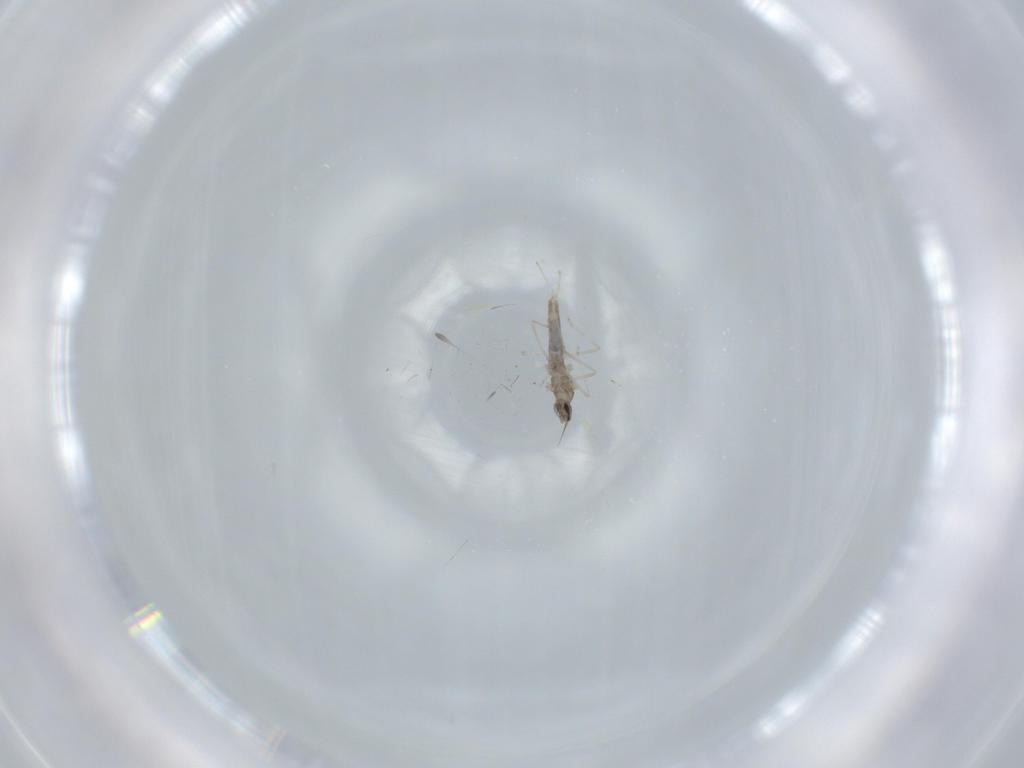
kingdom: Animalia
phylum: Arthropoda
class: Insecta
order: Diptera
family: Cecidomyiidae
